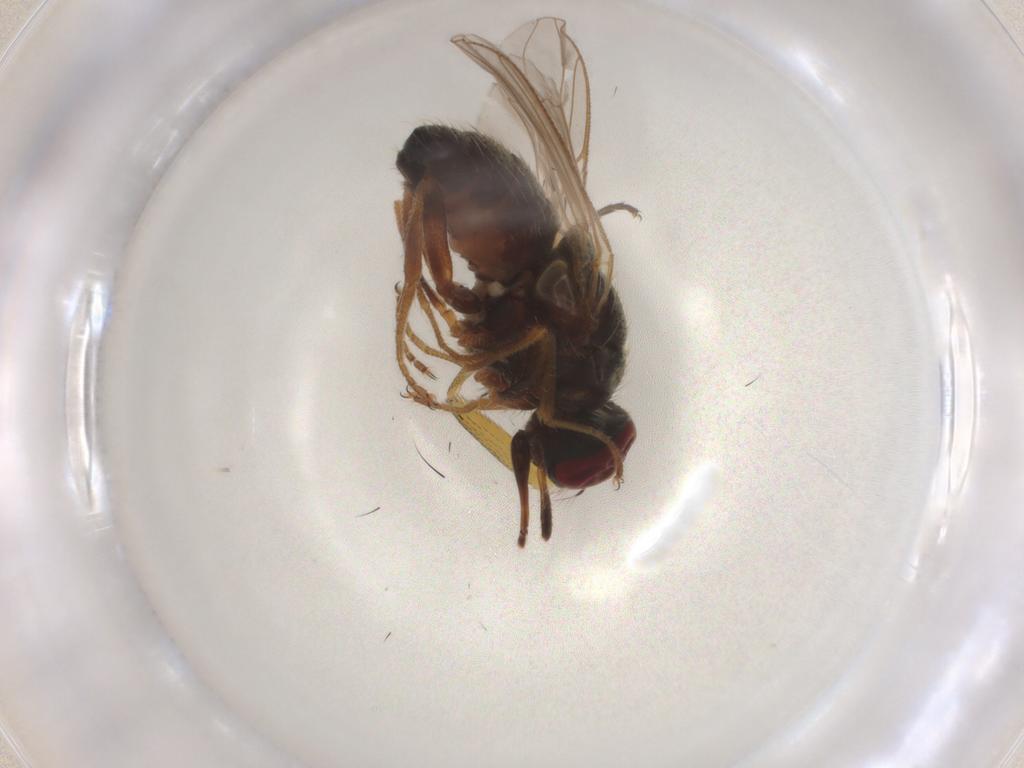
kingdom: Animalia
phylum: Arthropoda
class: Insecta
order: Diptera
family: Muscidae
